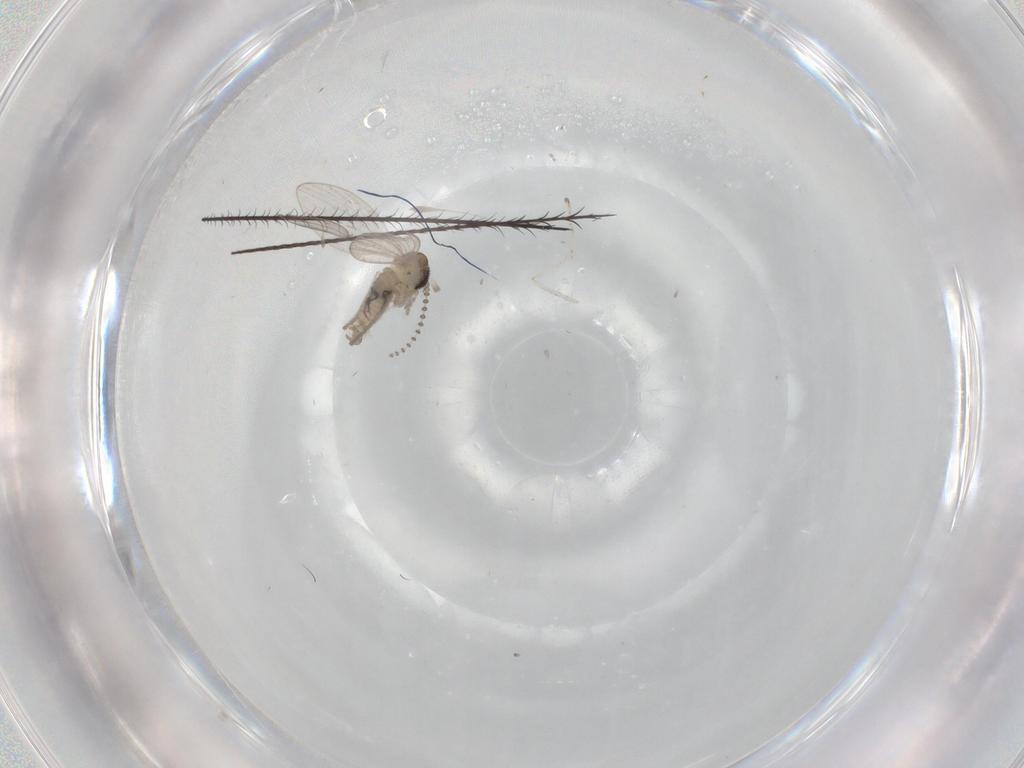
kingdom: Animalia
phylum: Arthropoda
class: Insecta
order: Diptera
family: Psychodidae
